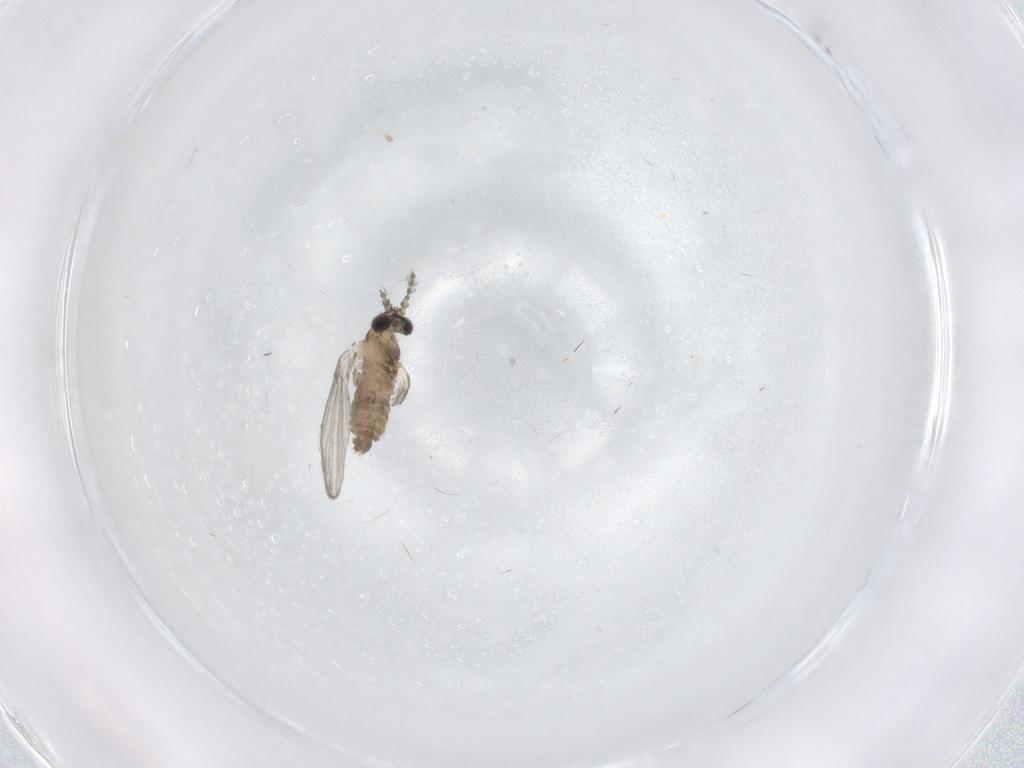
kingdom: Animalia
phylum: Arthropoda
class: Insecta
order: Diptera
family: Psychodidae
